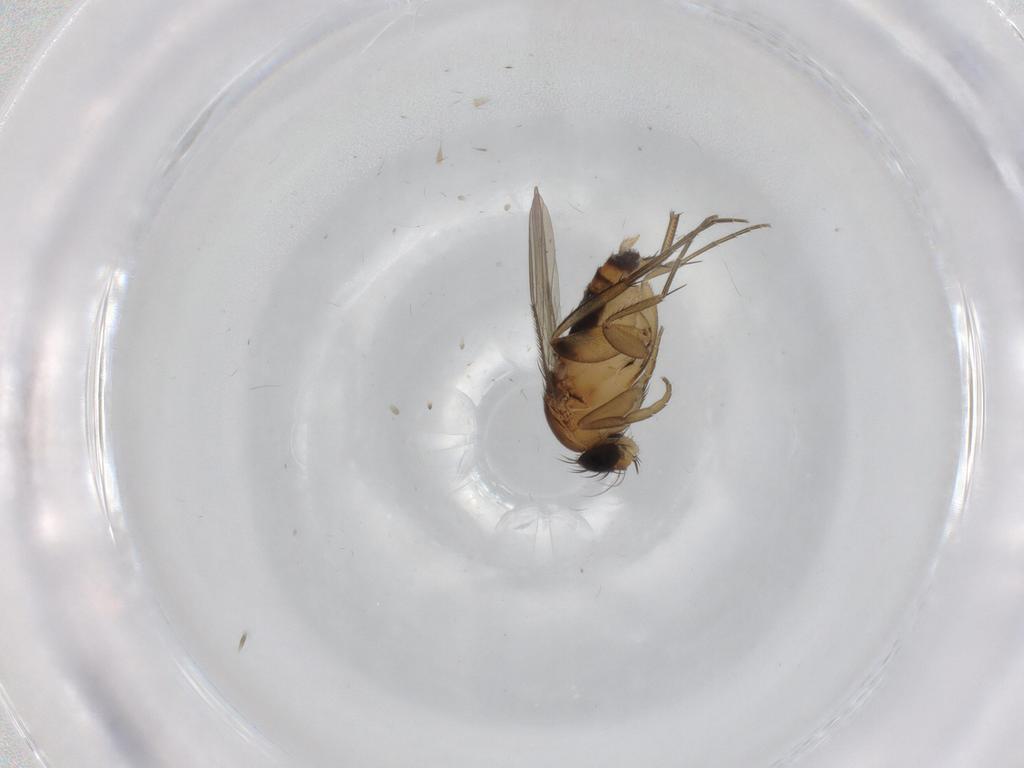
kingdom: Animalia
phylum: Arthropoda
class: Insecta
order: Diptera
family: Phoridae
